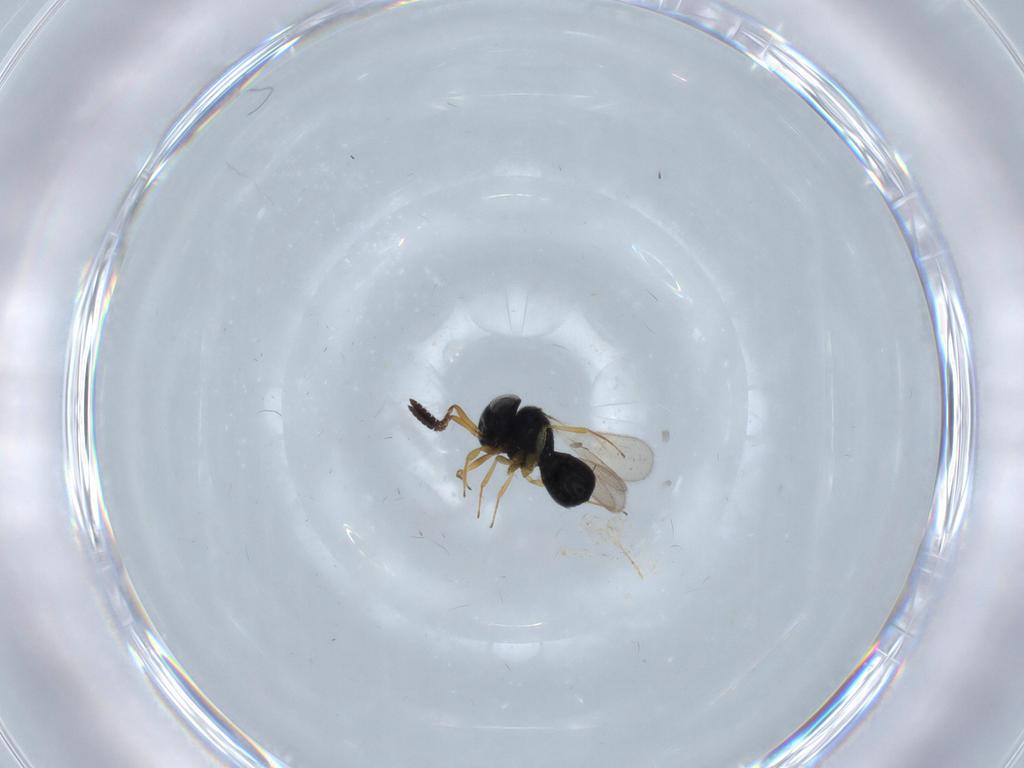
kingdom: Animalia
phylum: Arthropoda
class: Insecta
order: Hymenoptera
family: Scelionidae
